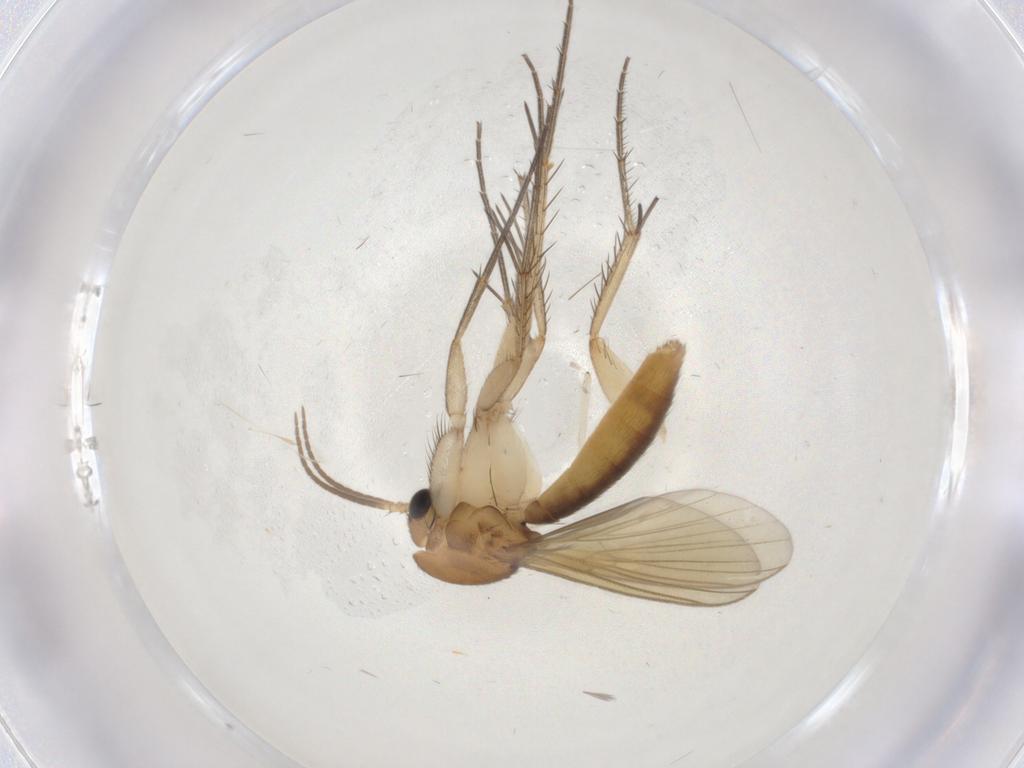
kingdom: Animalia
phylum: Arthropoda
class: Insecta
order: Diptera
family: Mycetophilidae
